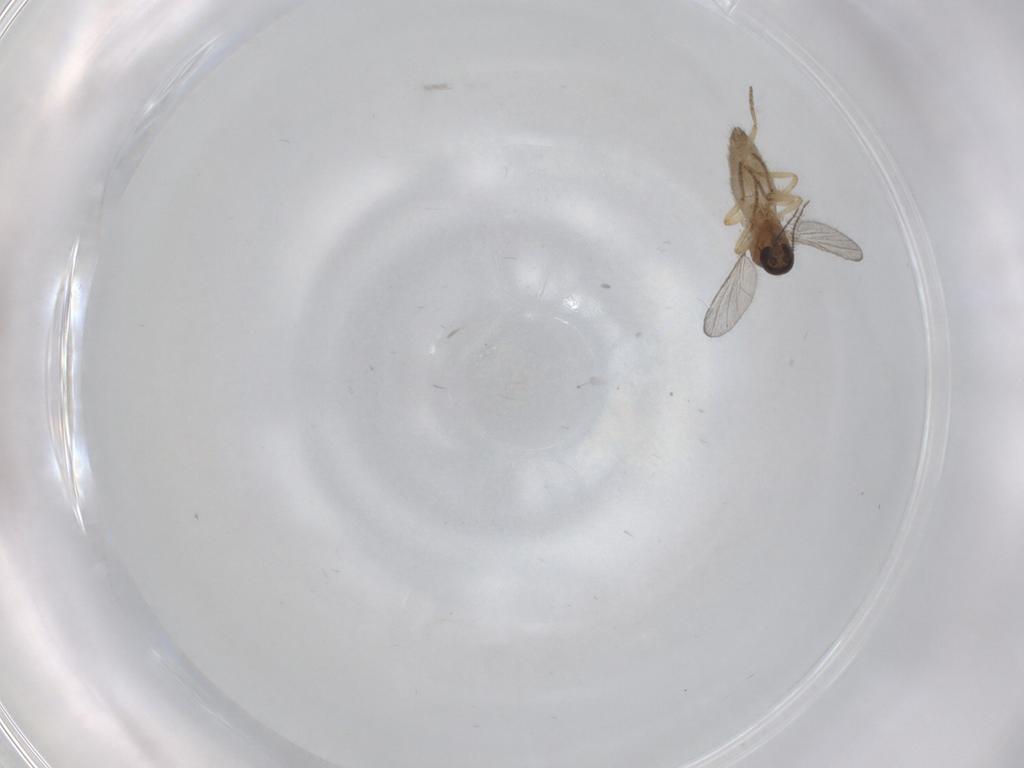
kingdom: Animalia
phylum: Arthropoda
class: Insecta
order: Diptera
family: Ceratopogonidae
